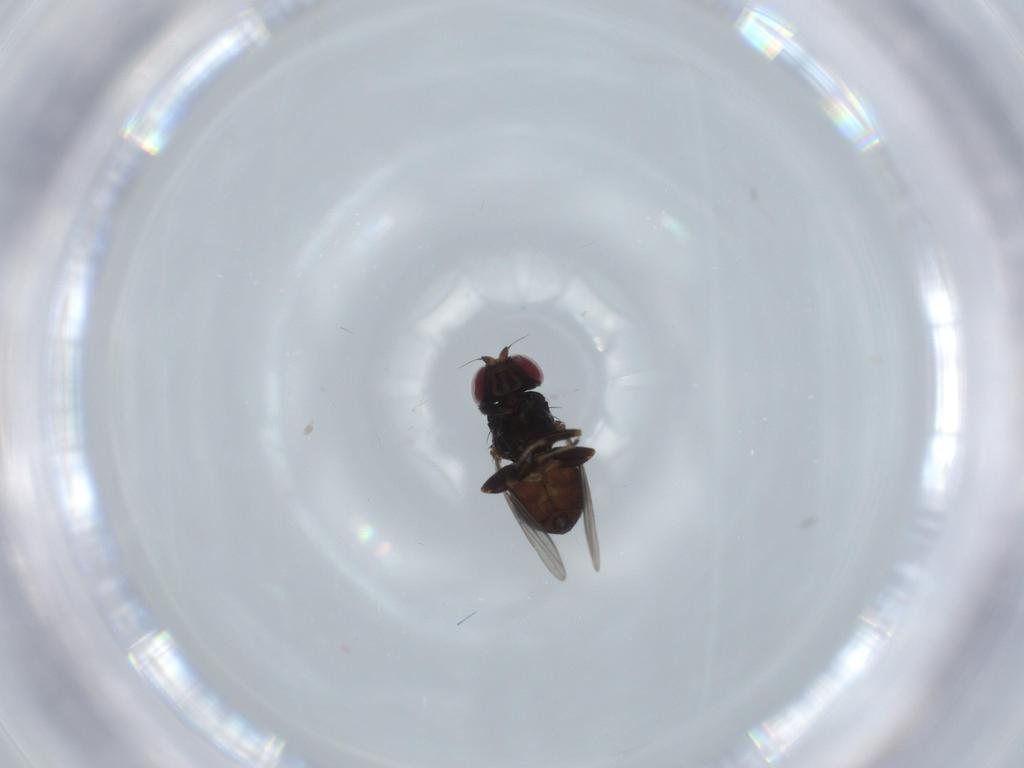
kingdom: Animalia
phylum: Arthropoda
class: Insecta
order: Diptera
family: Chloropidae
